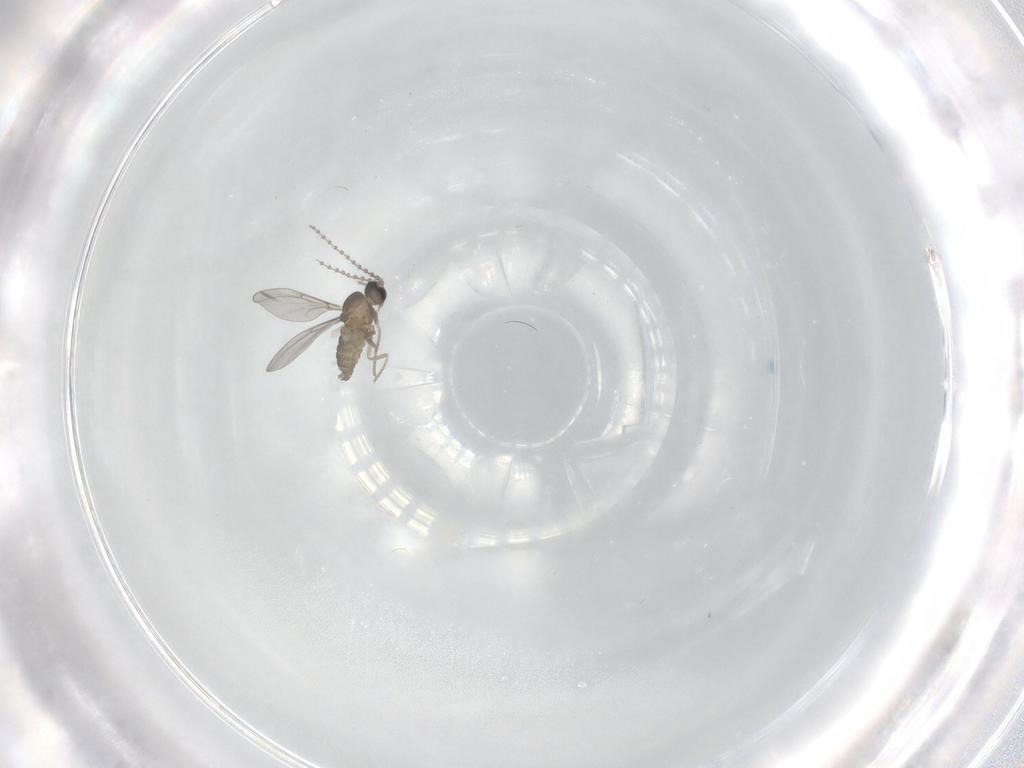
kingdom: Animalia
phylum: Arthropoda
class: Insecta
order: Diptera
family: Cecidomyiidae
